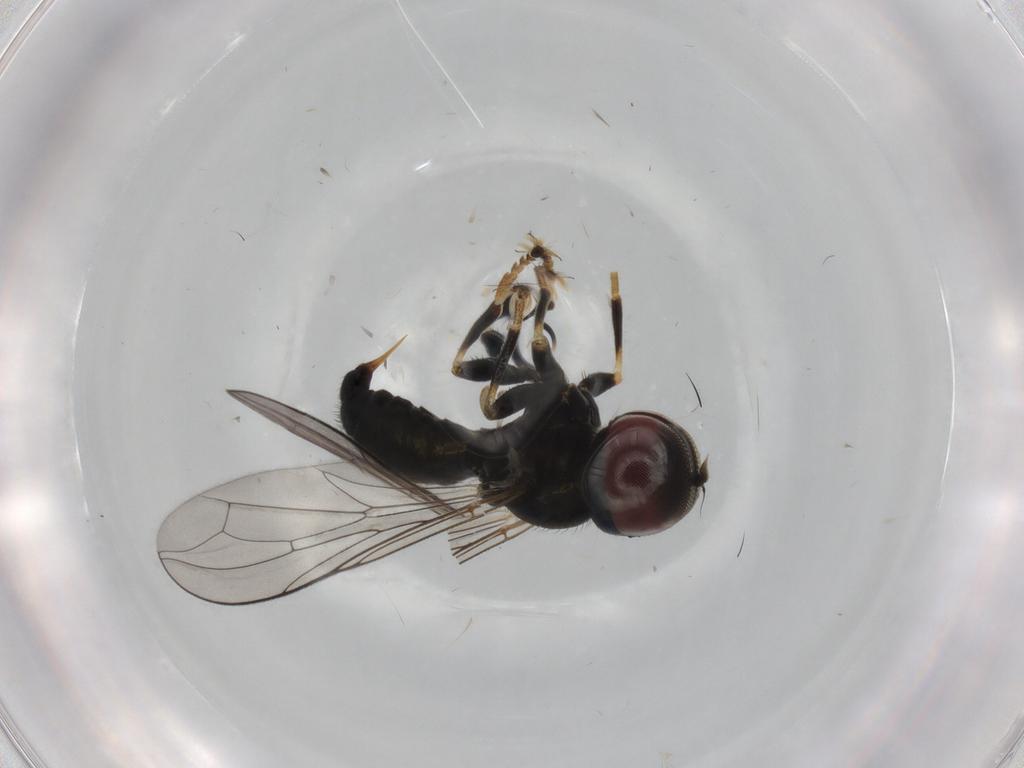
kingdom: Animalia
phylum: Arthropoda
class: Insecta
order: Diptera
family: Pipunculidae
